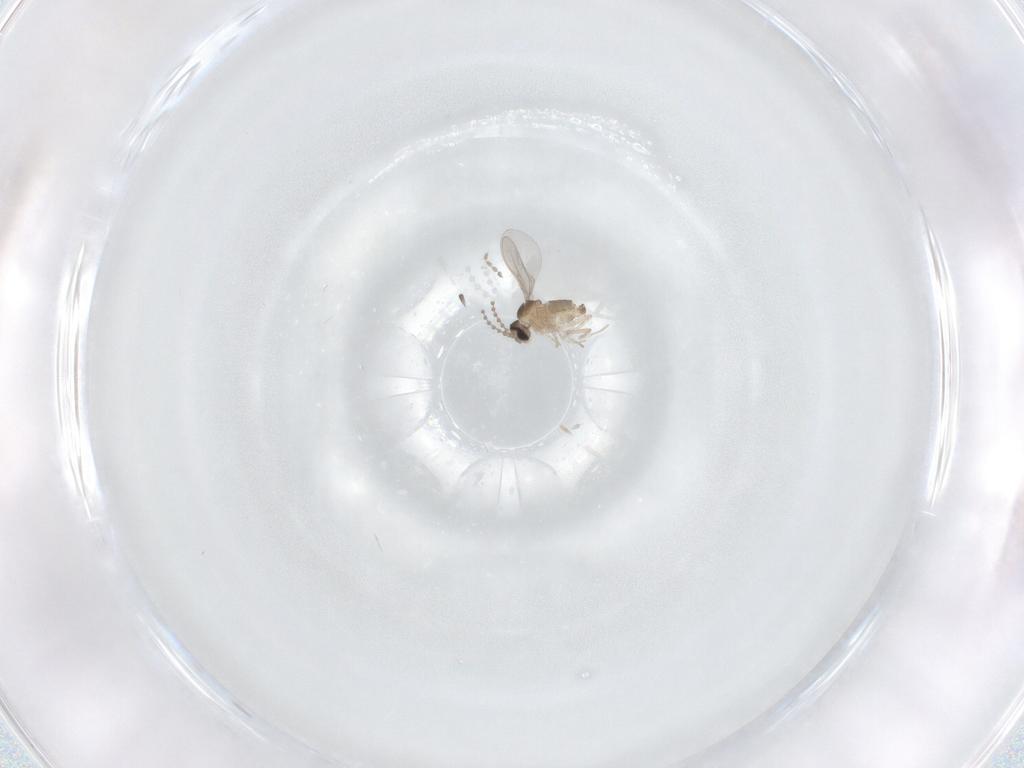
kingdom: Animalia
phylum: Arthropoda
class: Insecta
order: Diptera
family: Cecidomyiidae
